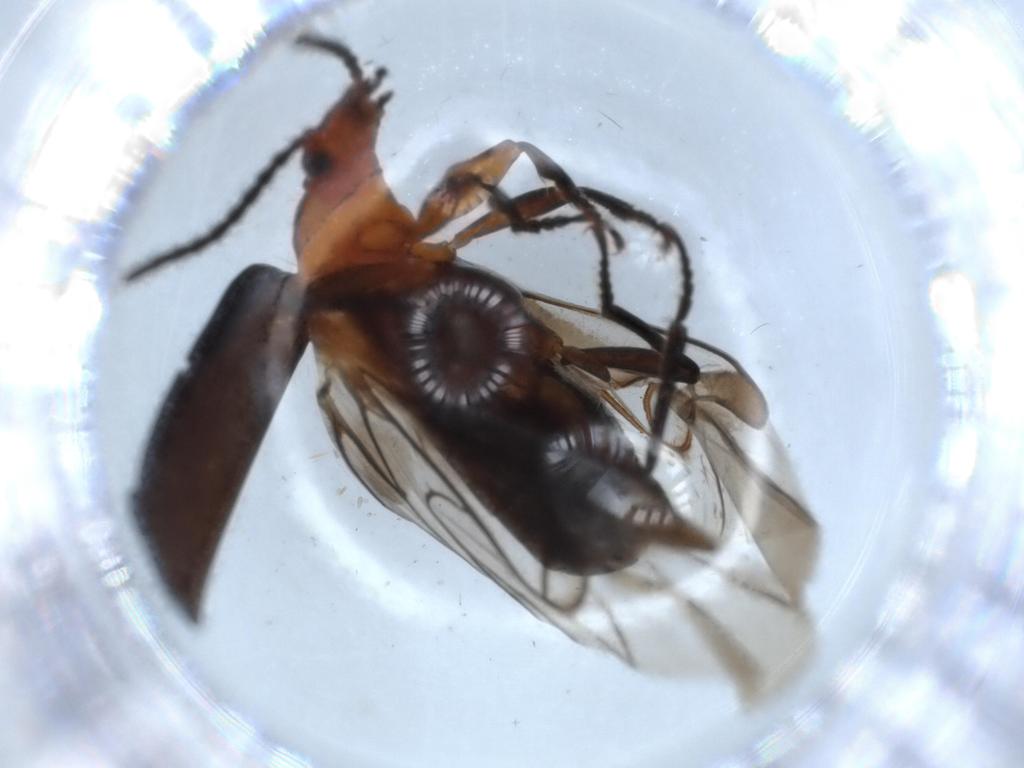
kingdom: Animalia
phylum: Arthropoda
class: Insecta
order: Coleoptera
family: Carabidae
